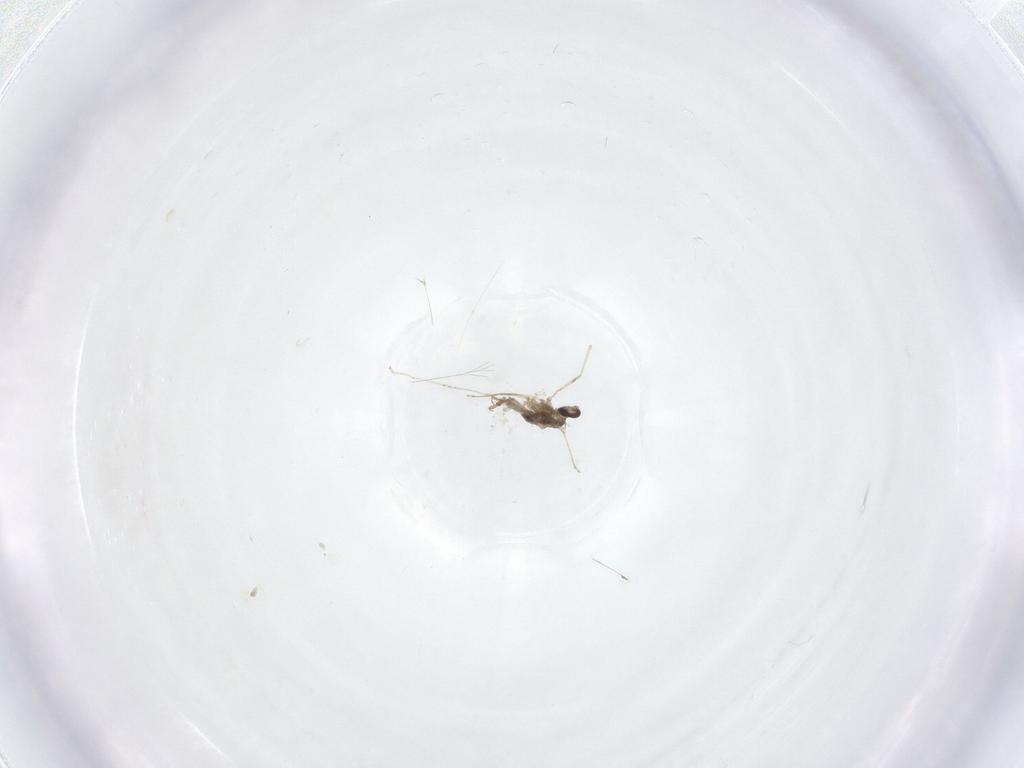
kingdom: Animalia
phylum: Arthropoda
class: Insecta
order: Diptera
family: Cecidomyiidae
